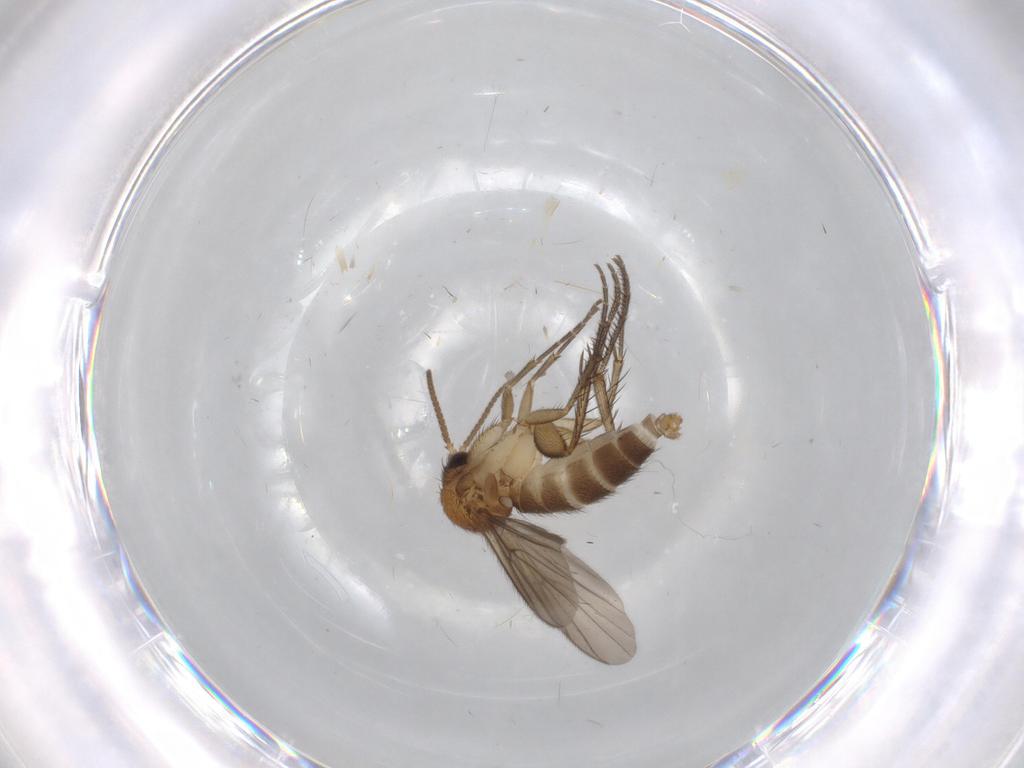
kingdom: Animalia
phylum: Arthropoda
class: Insecta
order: Diptera
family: Mycetophilidae
